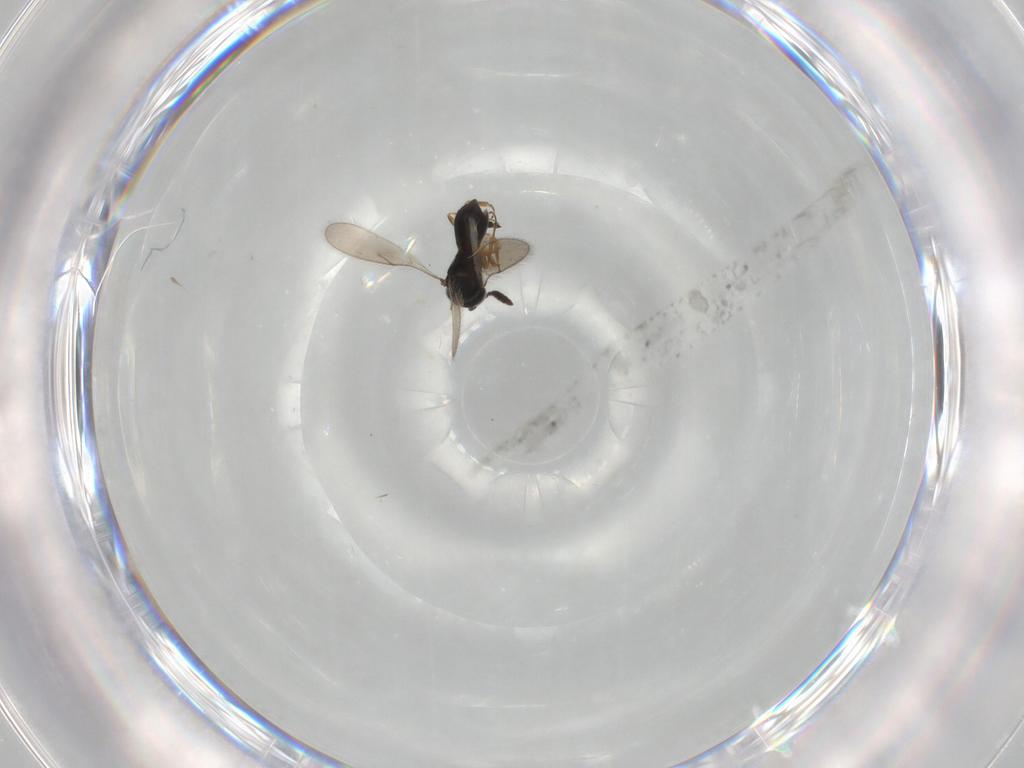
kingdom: Animalia
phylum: Arthropoda
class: Insecta
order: Hymenoptera
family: Scelionidae
